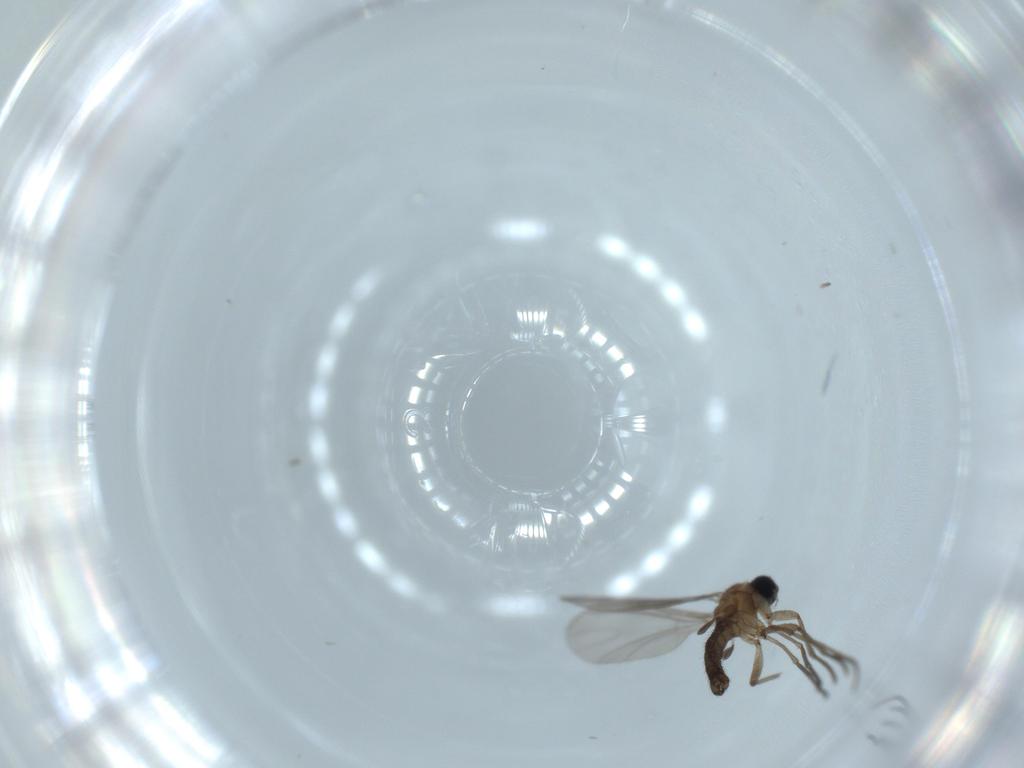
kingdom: Animalia
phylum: Arthropoda
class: Insecta
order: Diptera
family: Sciaridae
